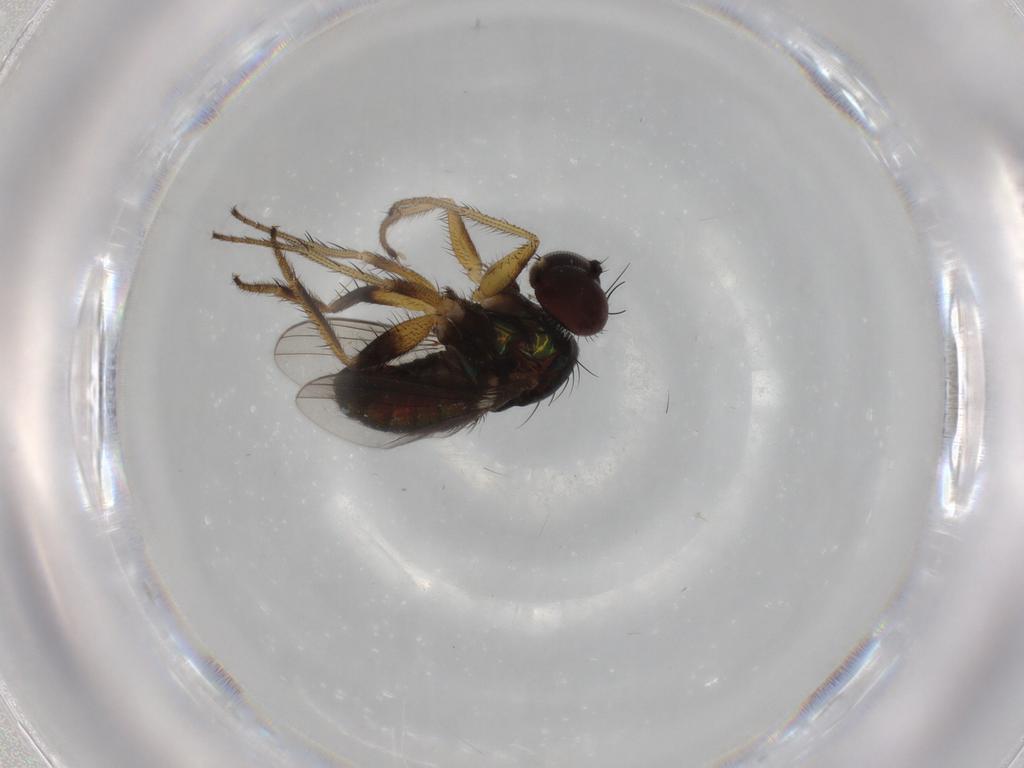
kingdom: Animalia
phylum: Arthropoda
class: Insecta
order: Diptera
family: Dolichopodidae
